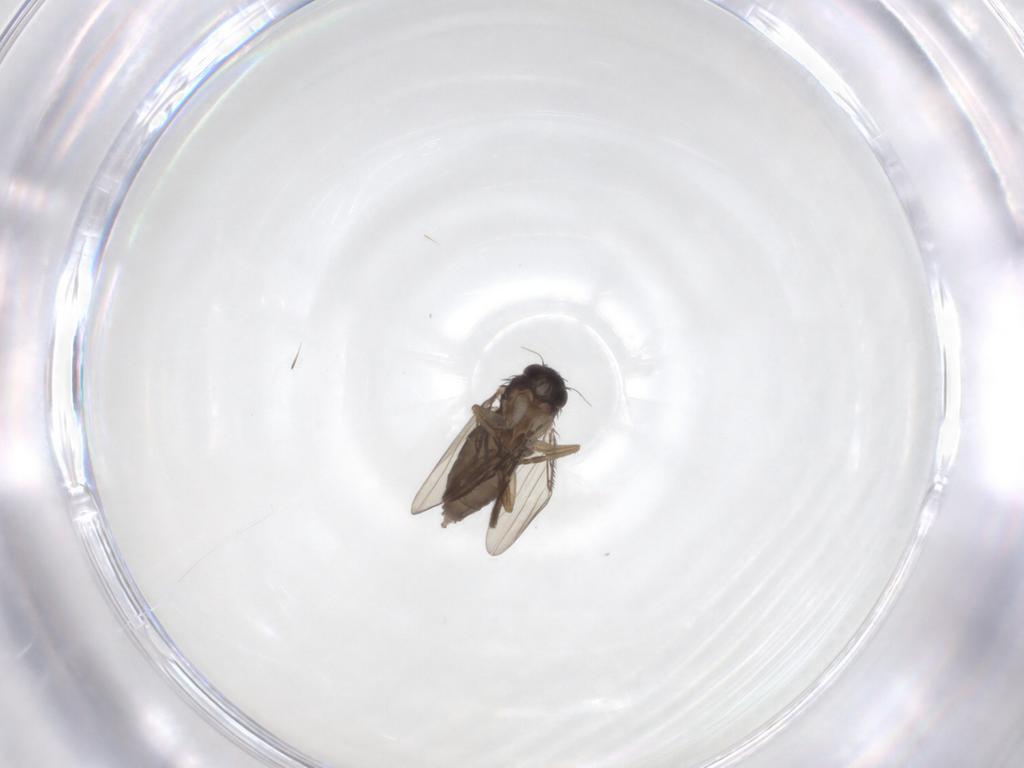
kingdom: Animalia
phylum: Arthropoda
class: Insecta
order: Diptera
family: Phoridae
